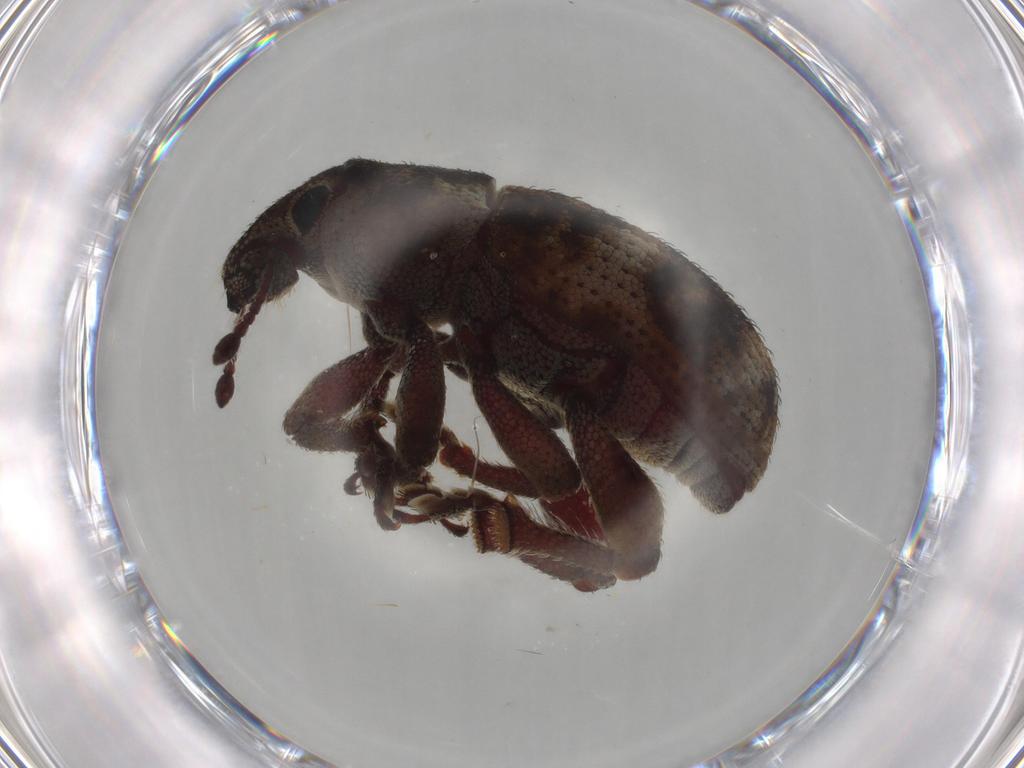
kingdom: Animalia
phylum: Arthropoda
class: Insecta
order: Coleoptera
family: Curculionidae
